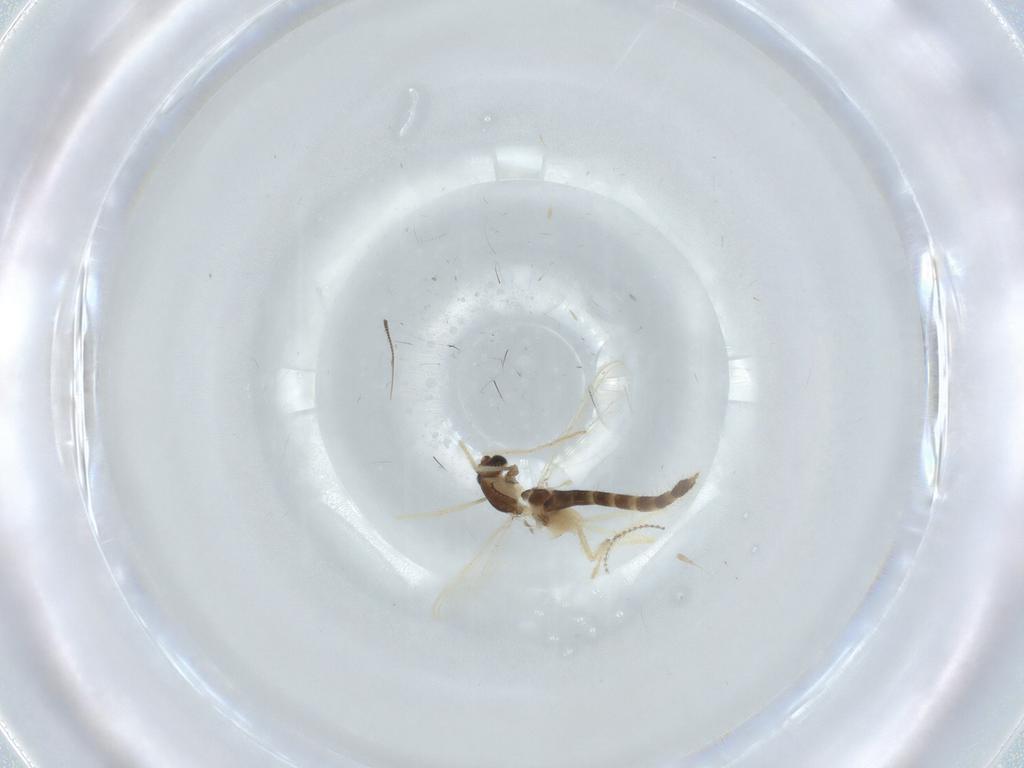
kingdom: Animalia
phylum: Arthropoda
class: Insecta
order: Diptera
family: Chironomidae
